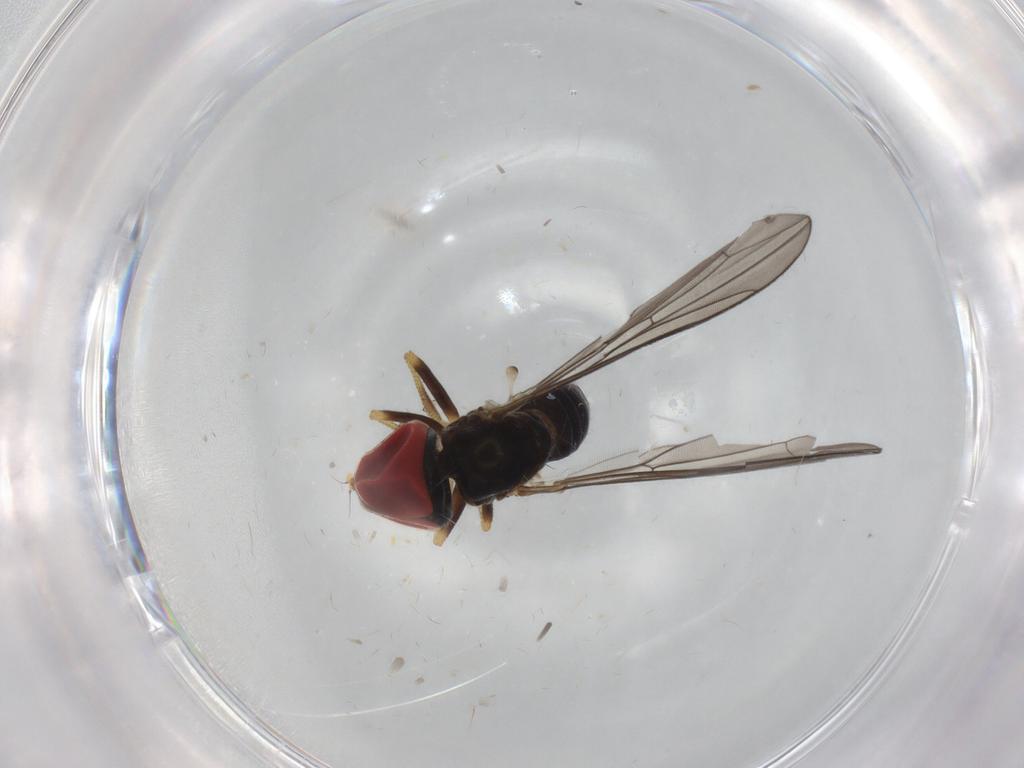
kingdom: Animalia
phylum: Arthropoda
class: Insecta
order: Diptera
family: Pipunculidae
